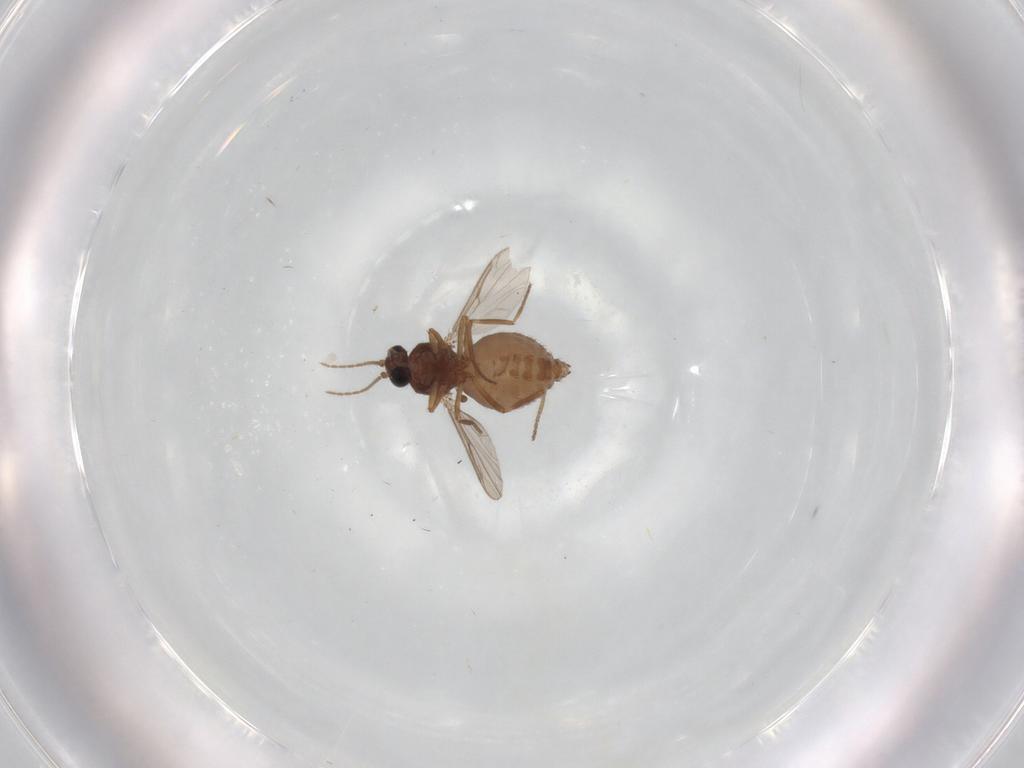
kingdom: Animalia
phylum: Arthropoda
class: Insecta
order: Diptera
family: Ceratopogonidae
